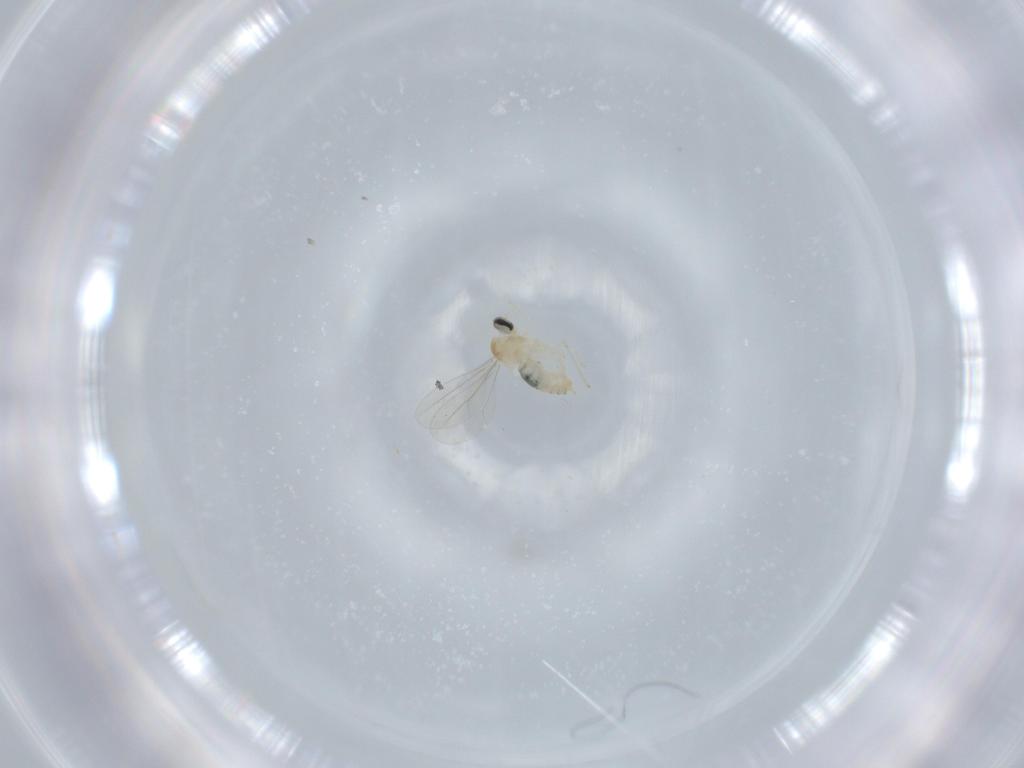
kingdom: Animalia
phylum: Arthropoda
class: Insecta
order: Diptera
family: Cecidomyiidae
